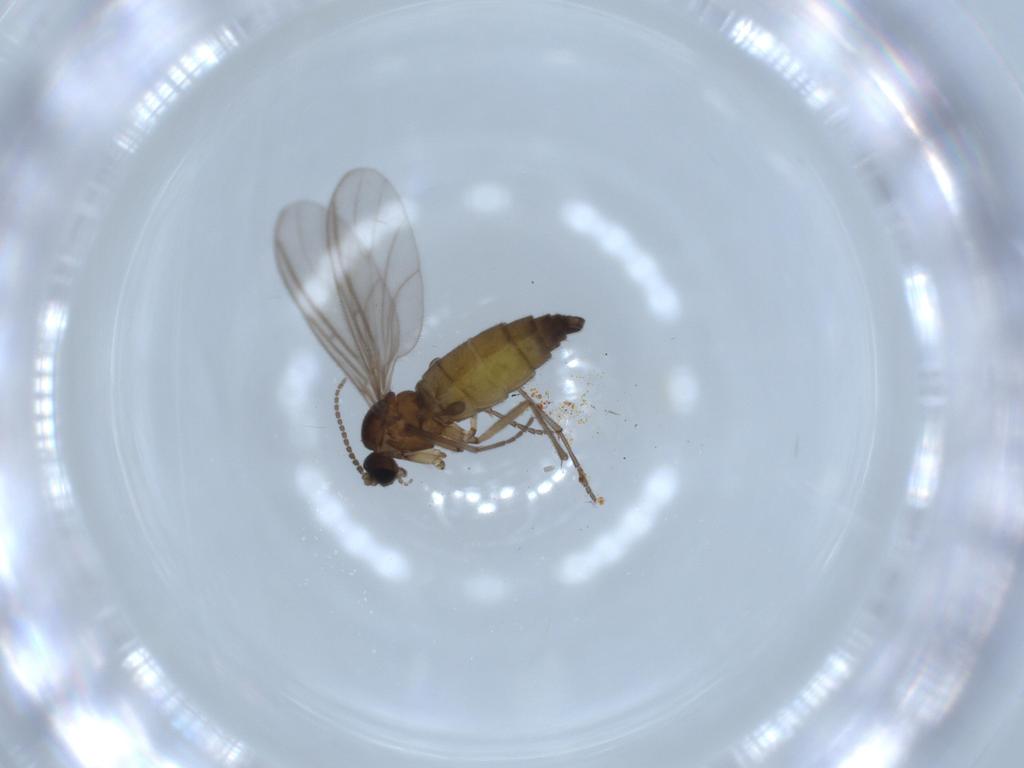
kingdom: Animalia
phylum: Arthropoda
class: Insecta
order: Diptera
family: Sciaridae
